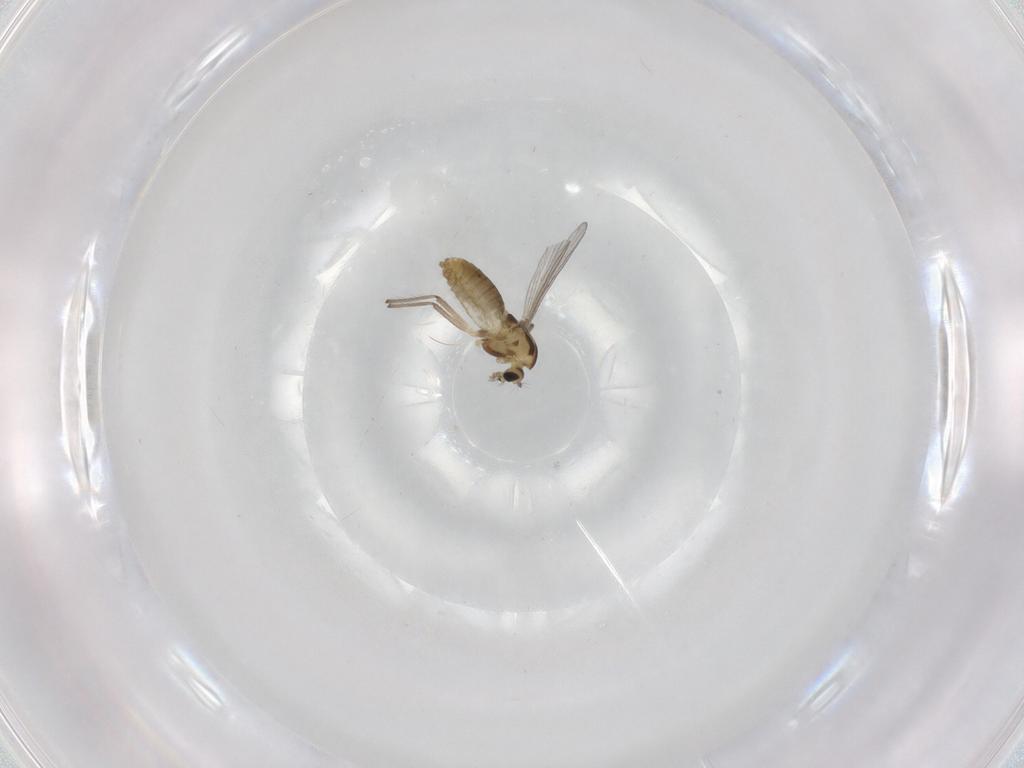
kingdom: Animalia
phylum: Arthropoda
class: Insecta
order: Diptera
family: Chironomidae
